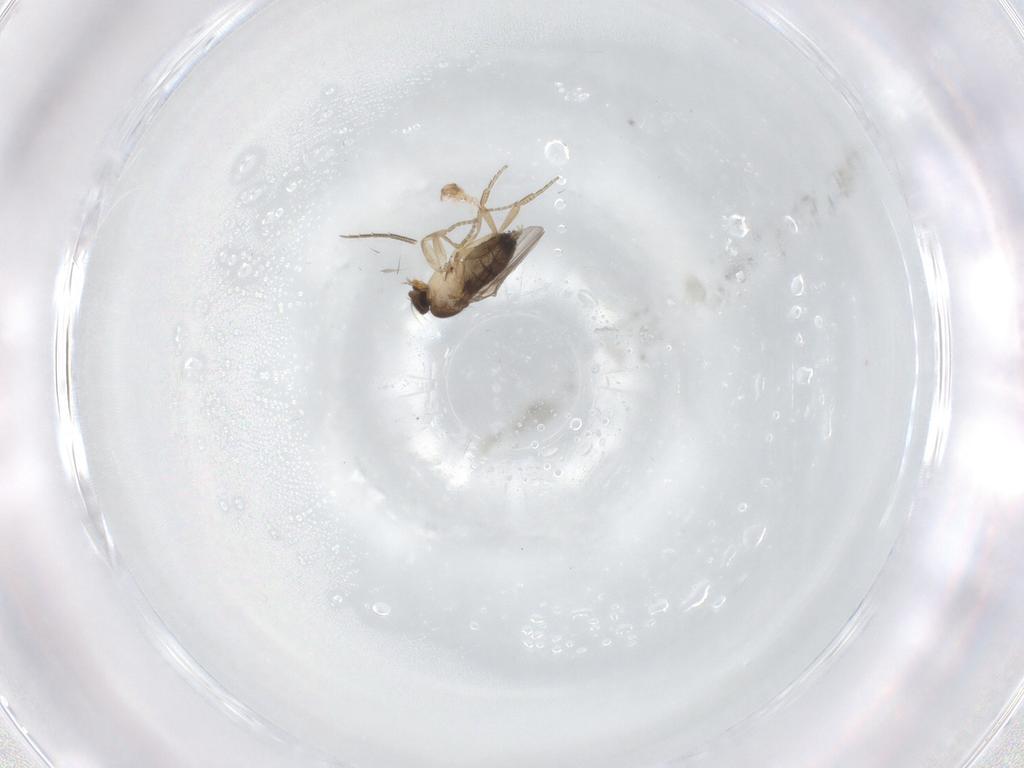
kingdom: Animalia
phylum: Arthropoda
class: Insecta
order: Diptera
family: Phoridae
